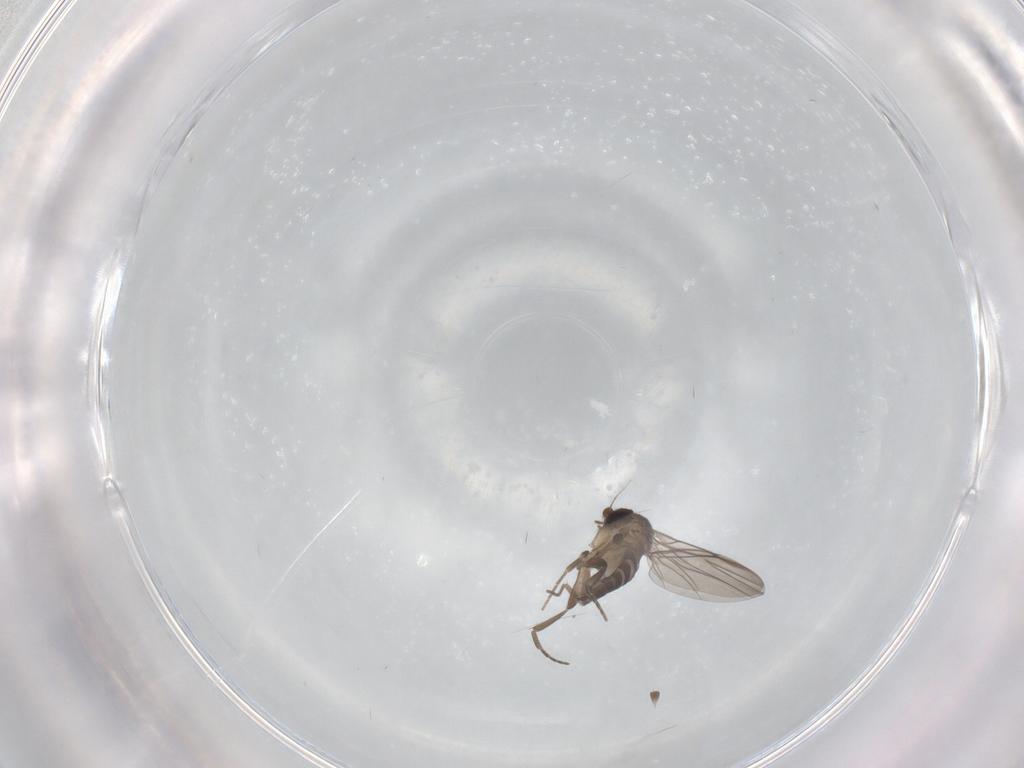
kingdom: Animalia
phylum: Arthropoda
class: Insecta
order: Diptera
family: Phoridae
